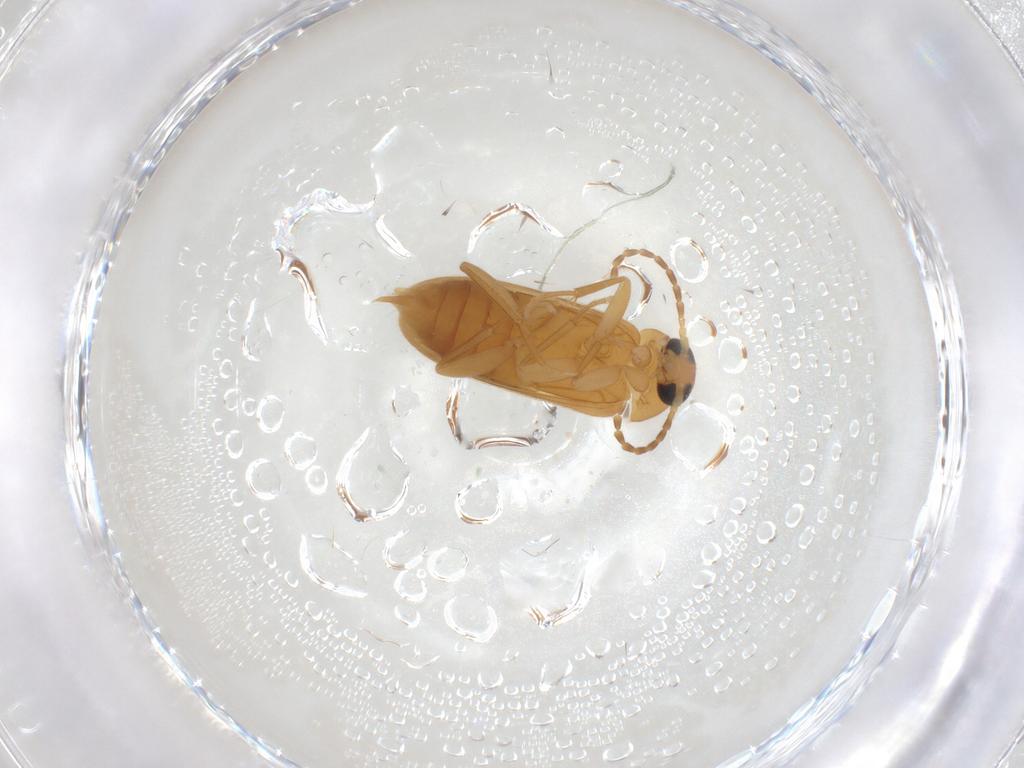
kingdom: Animalia
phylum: Arthropoda
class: Insecta
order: Coleoptera
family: Scraptiidae
